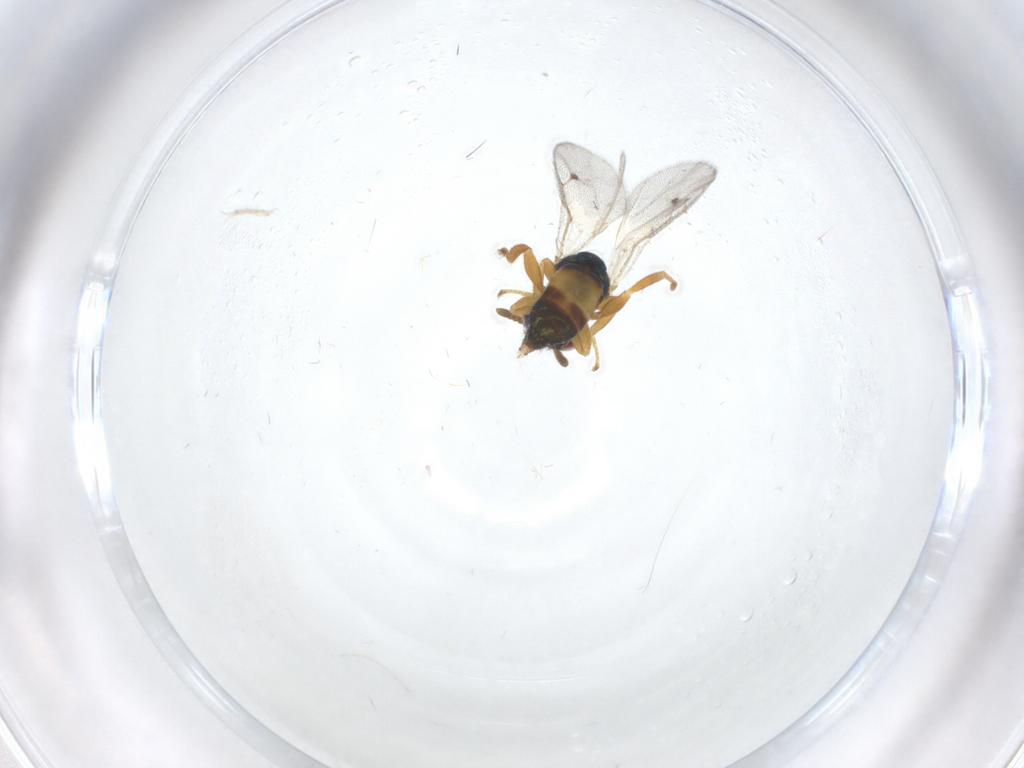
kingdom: Animalia
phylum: Arthropoda
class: Insecta
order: Hymenoptera
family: Pteromalidae
